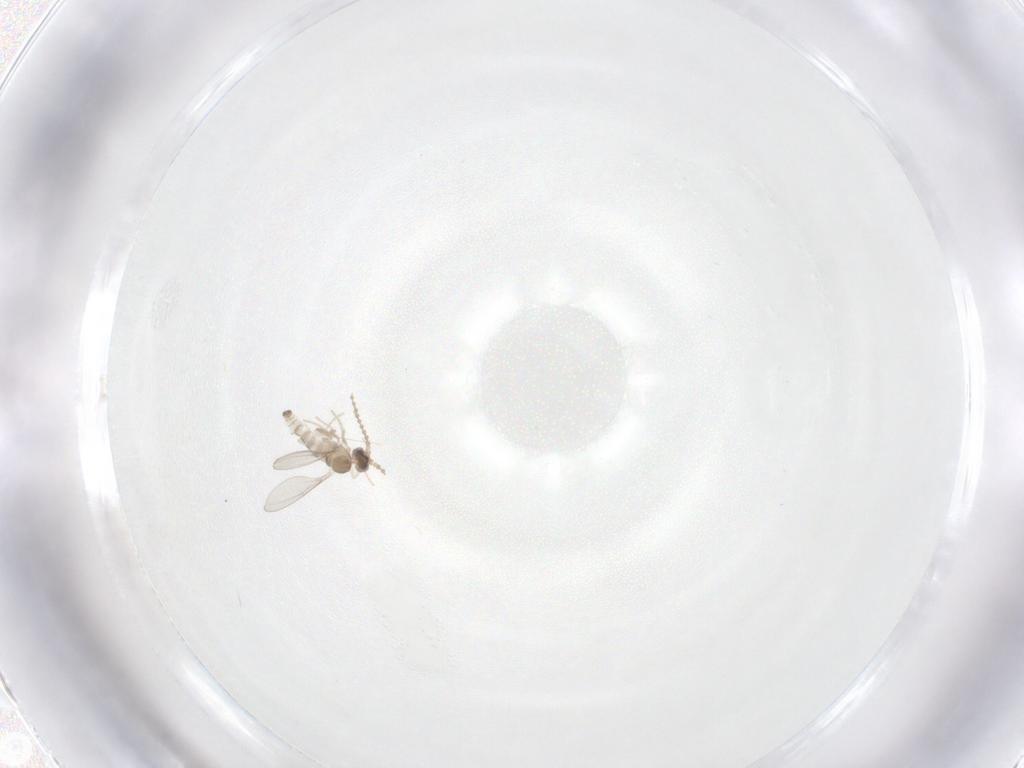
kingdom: Animalia
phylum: Arthropoda
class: Insecta
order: Diptera
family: Cecidomyiidae
